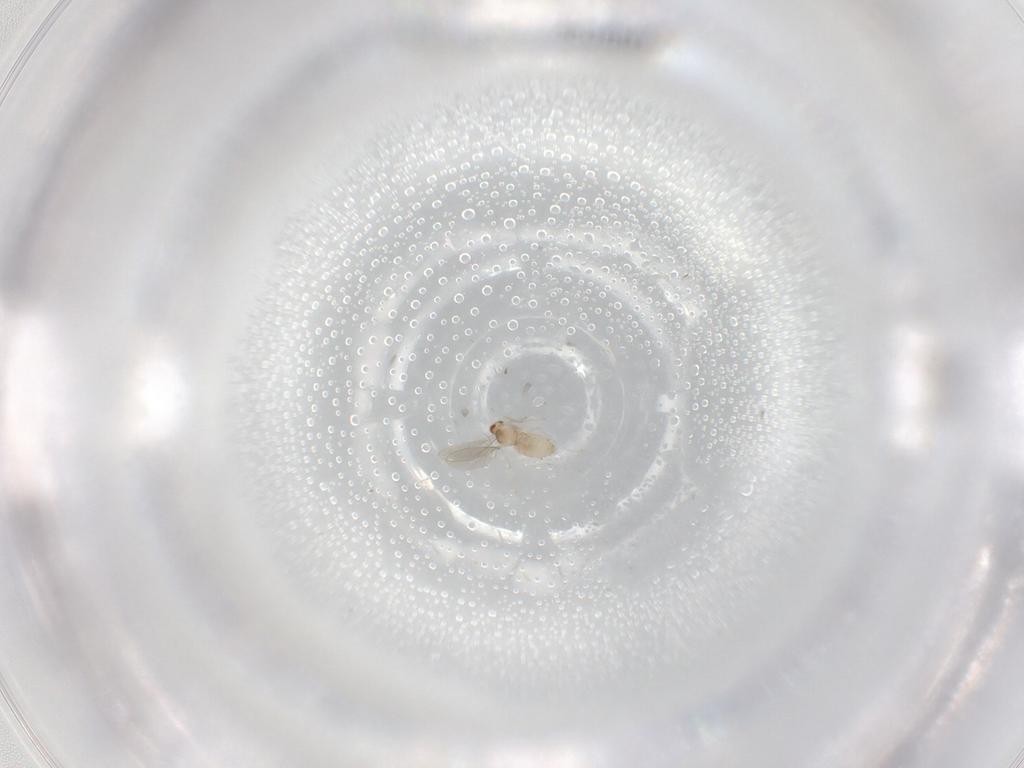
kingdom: Animalia
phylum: Arthropoda
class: Insecta
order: Diptera
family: Cecidomyiidae
